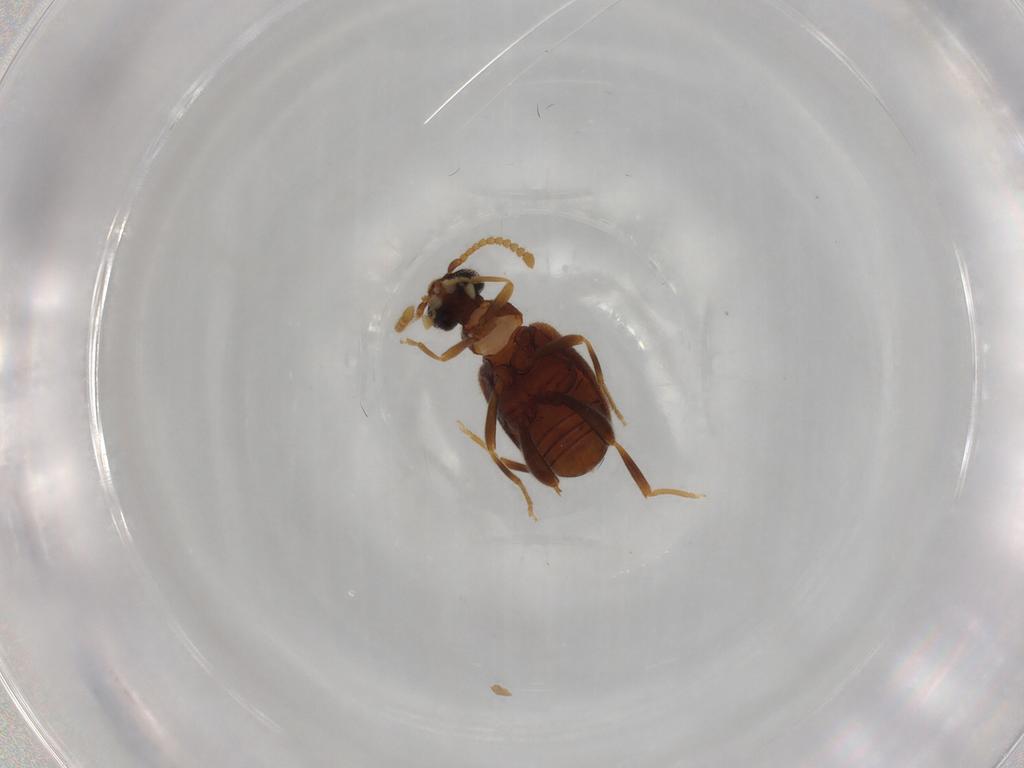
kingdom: Animalia
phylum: Arthropoda
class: Insecta
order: Coleoptera
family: Aderidae
